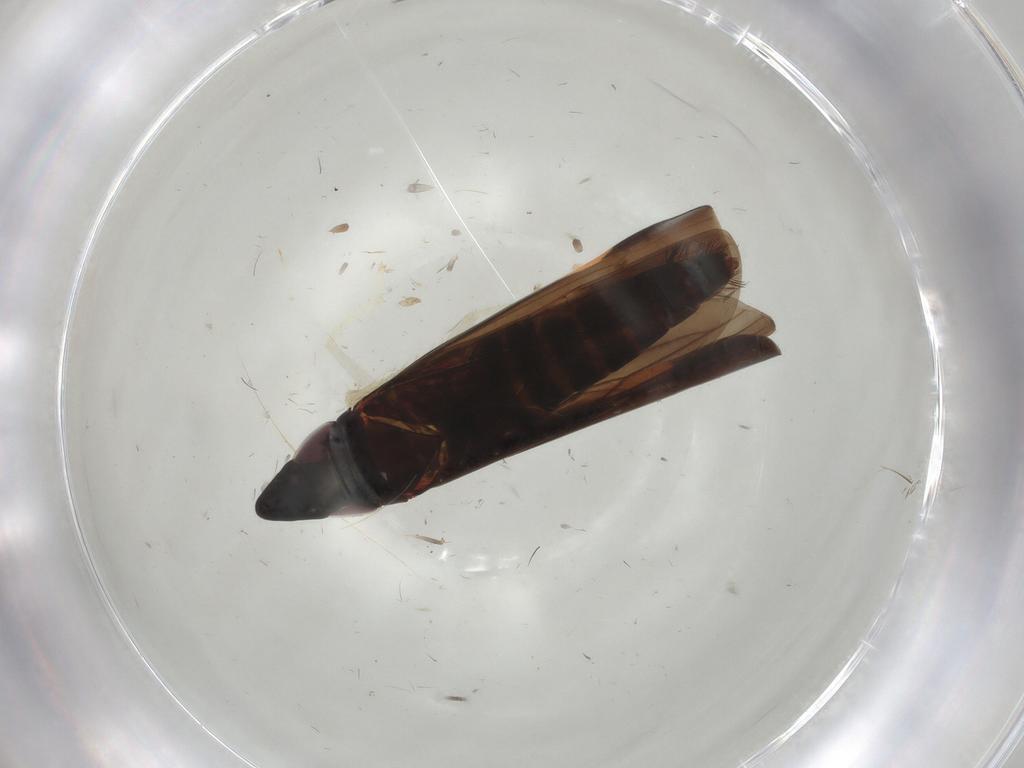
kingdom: Animalia
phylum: Arthropoda
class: Insecta
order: Hemiptera
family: Cicadellidae
